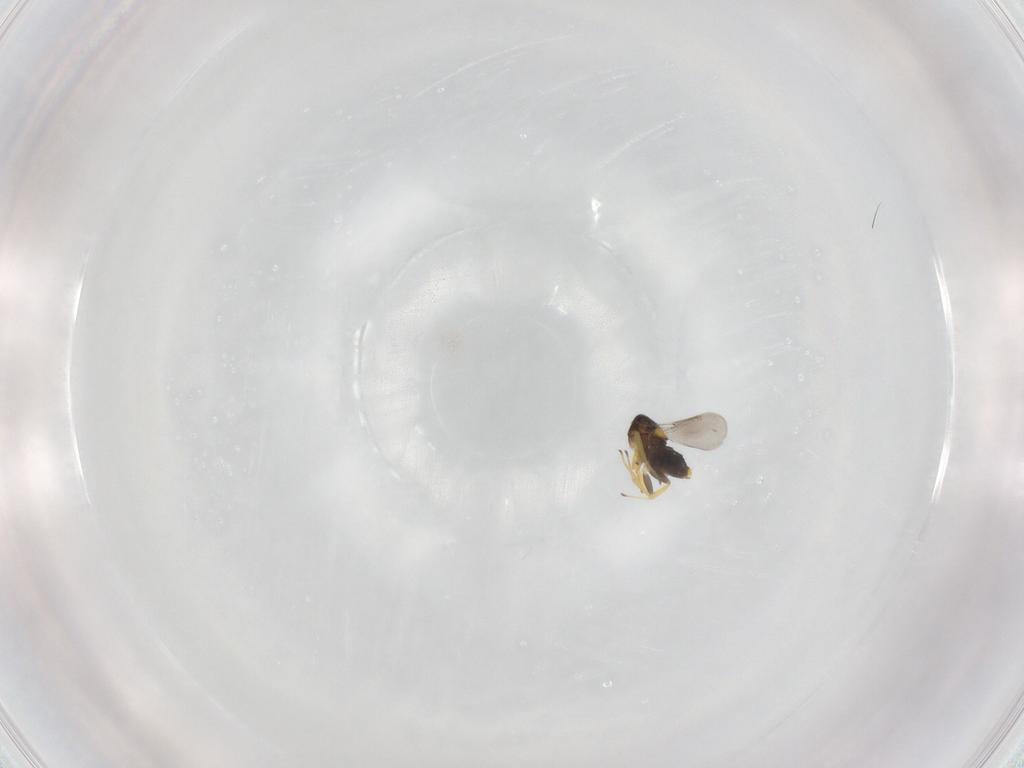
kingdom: Animalia
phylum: Arthropoda
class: Insecta
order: Hymenoptera
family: Aphelinidae
